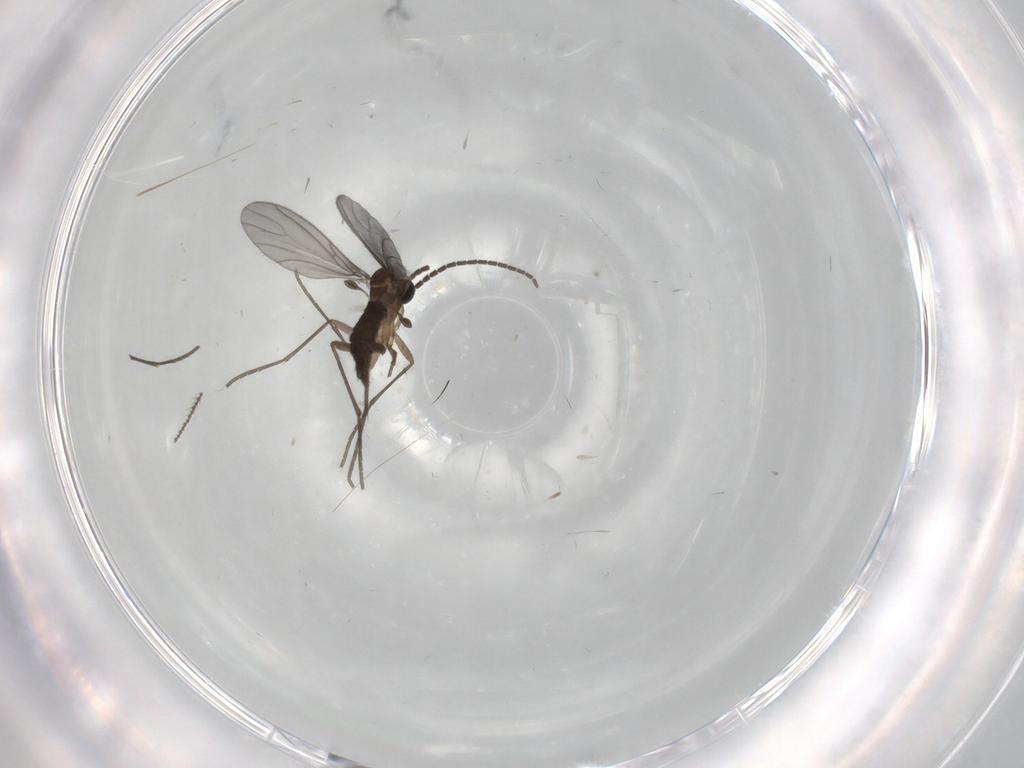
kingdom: Animalia
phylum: Arthropoda
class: Insecta
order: Diptera
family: Sciaridae
